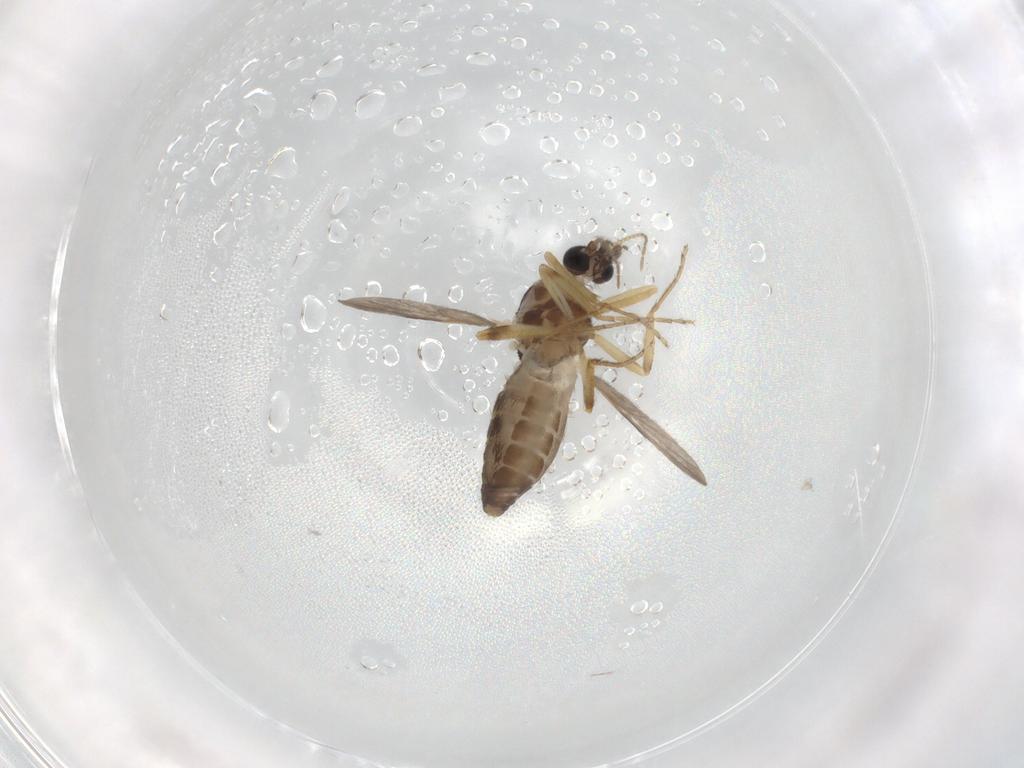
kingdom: Animalia
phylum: Arthropoda
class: Insecta
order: Diptera
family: Ceratopogonidae
